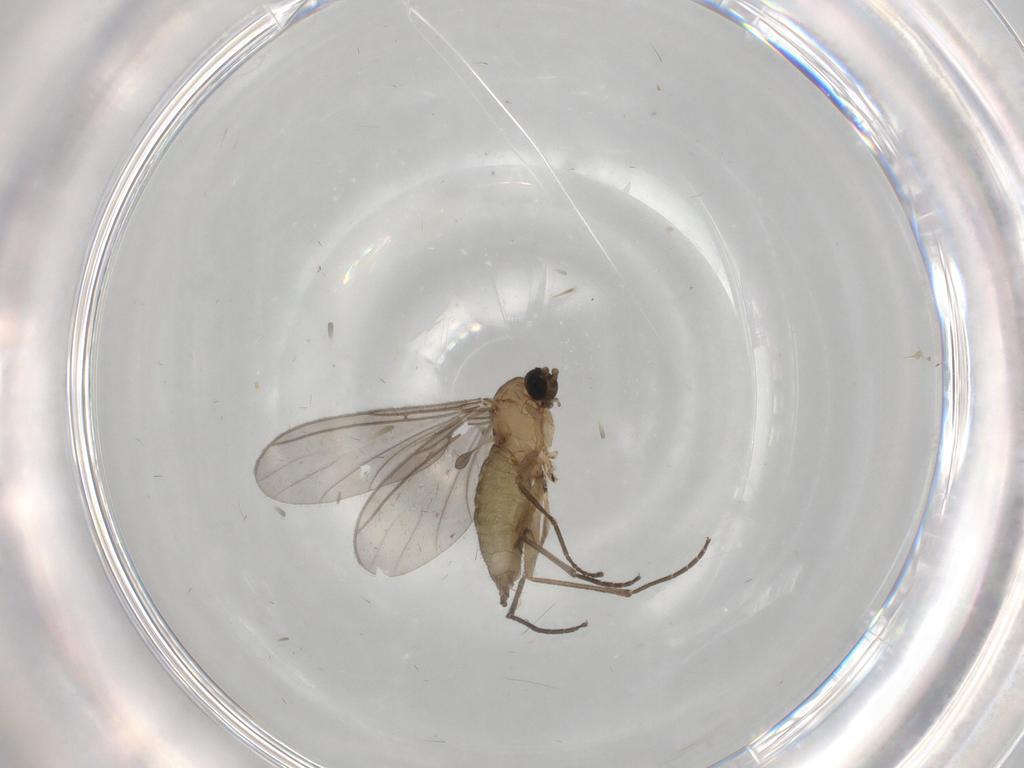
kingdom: Animalia
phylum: Arthropoda
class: Insecta
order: Diptera
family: Sciaridae
